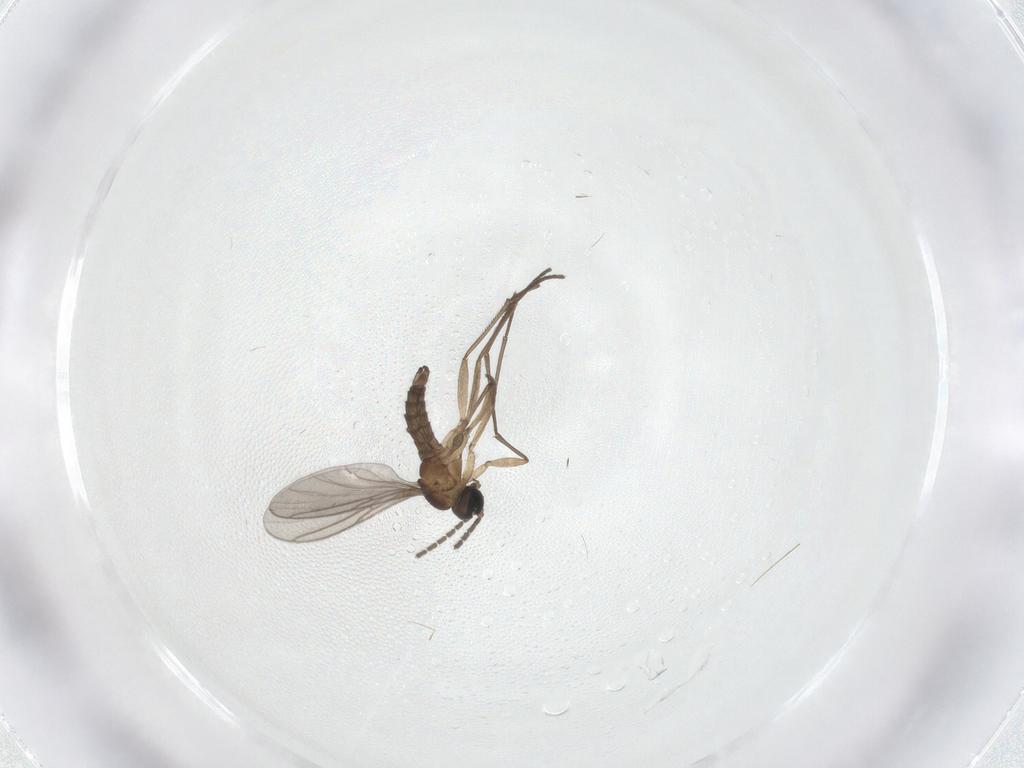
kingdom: Animalia
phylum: Arthropoda
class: Insecta
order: Diptera
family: Sciaridae
